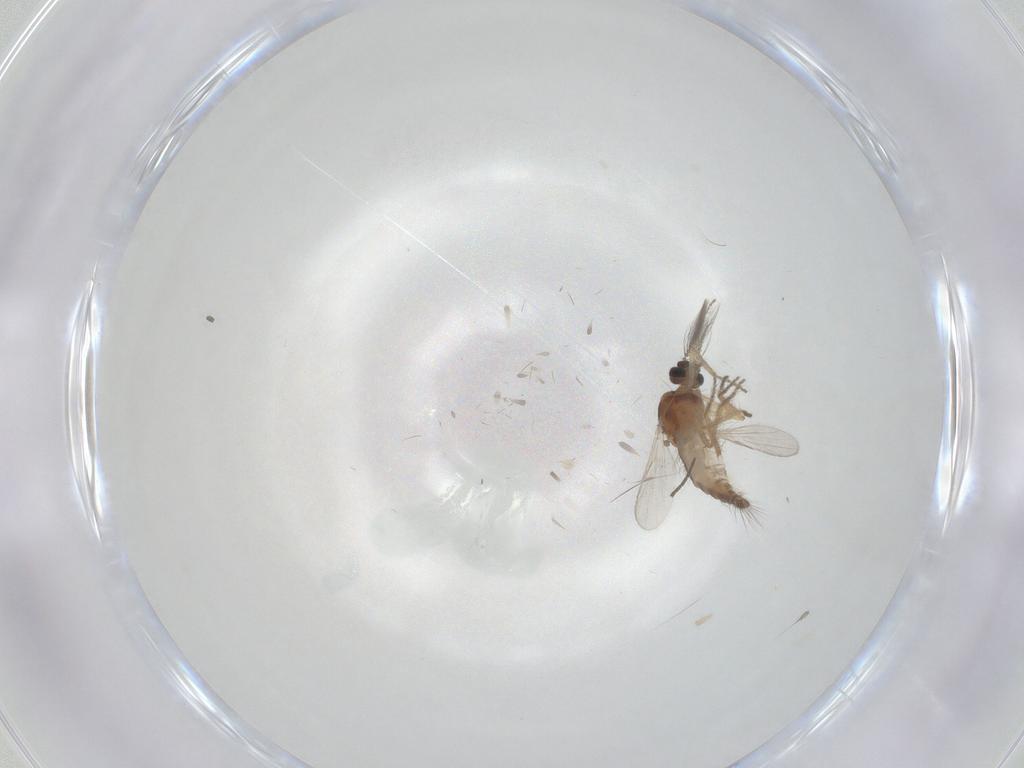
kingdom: Animalia
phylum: Arthropoda
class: Insecta
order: Diptera
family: Ceratopogonidae
